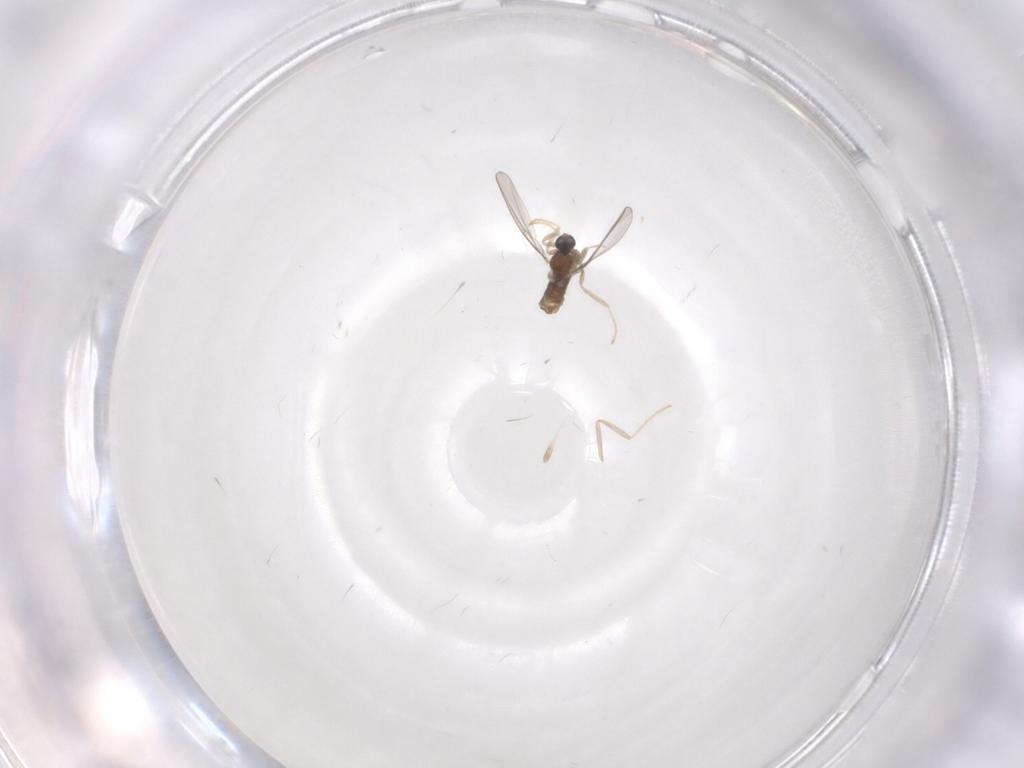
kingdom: Animalia
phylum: Arthropoda
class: Insecta
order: Diptera
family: Cecidomyiidae
